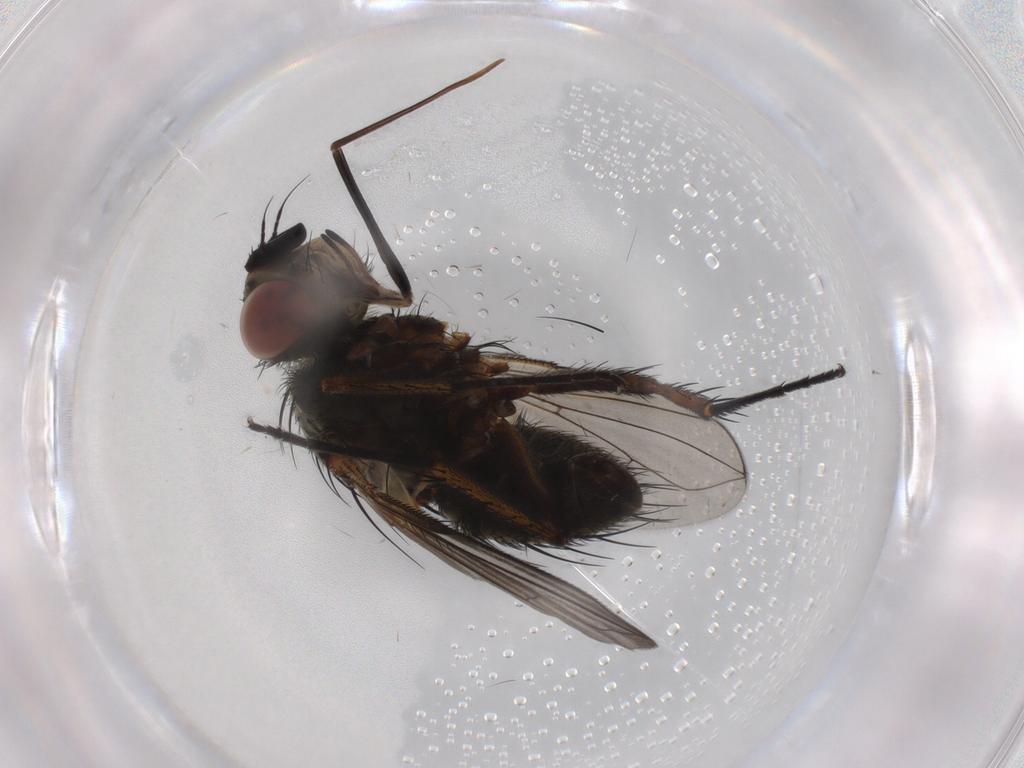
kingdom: Animalia
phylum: Arthropoda
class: Insecta
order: Diptera
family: Tachinidae
